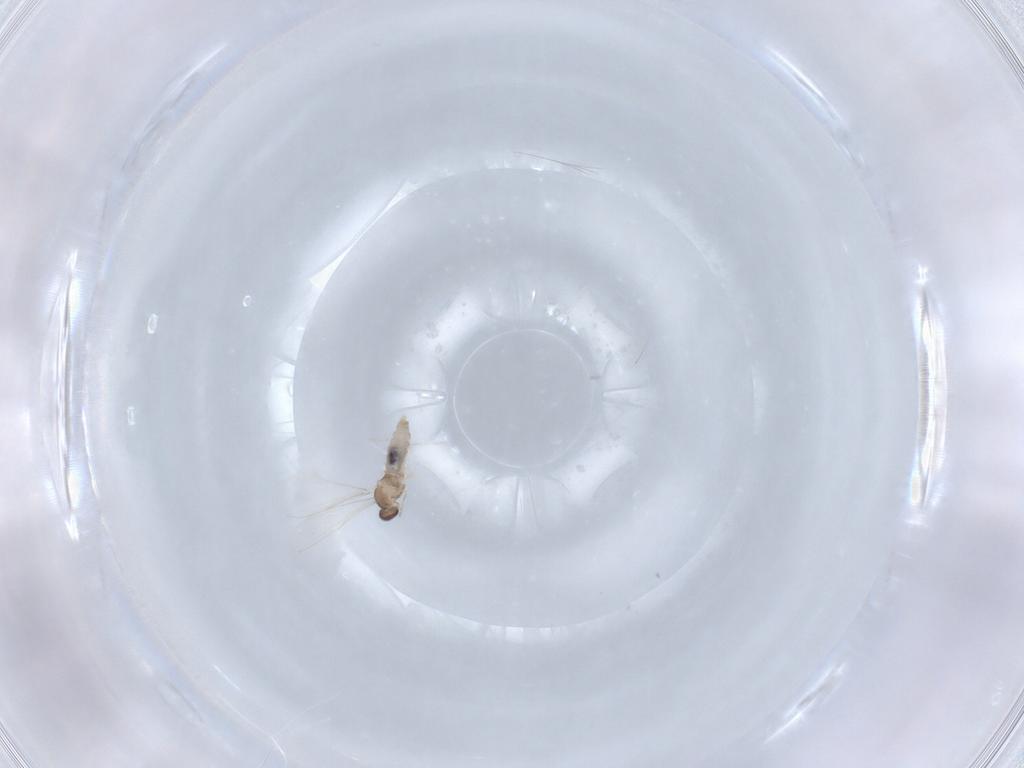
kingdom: Animalia
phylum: Arthropoda
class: Insecta
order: Diptera
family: Cecidomyiidae
